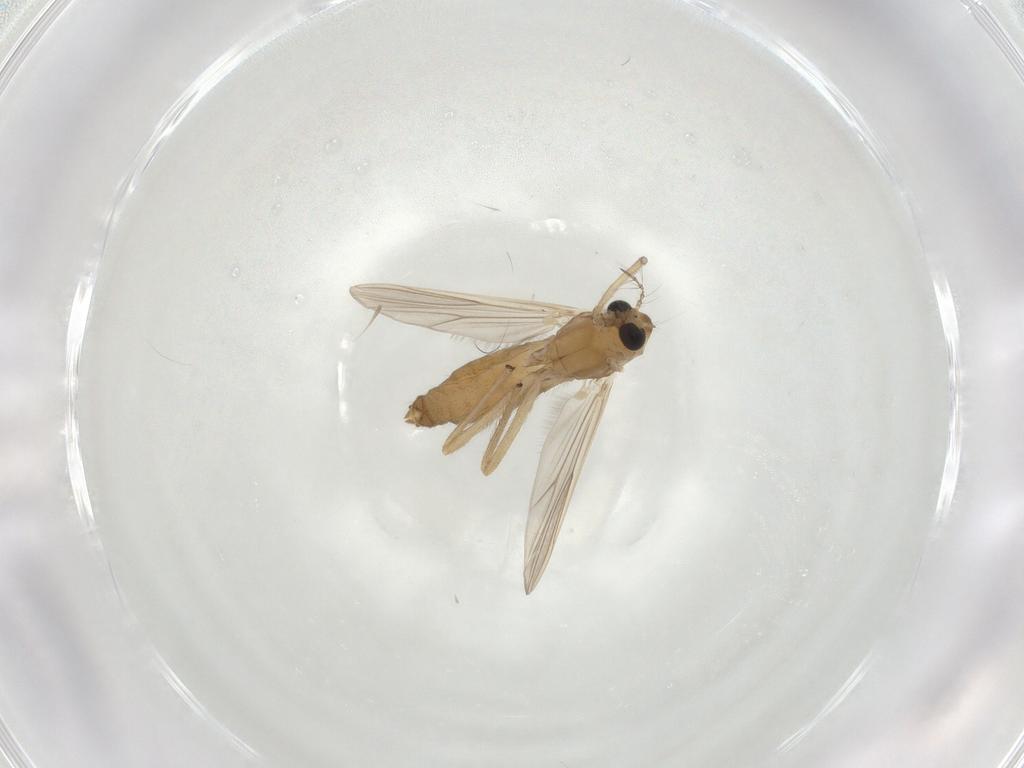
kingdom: Animalia
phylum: Arthropoda
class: Insecta
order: Diptera
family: Chironomidae
